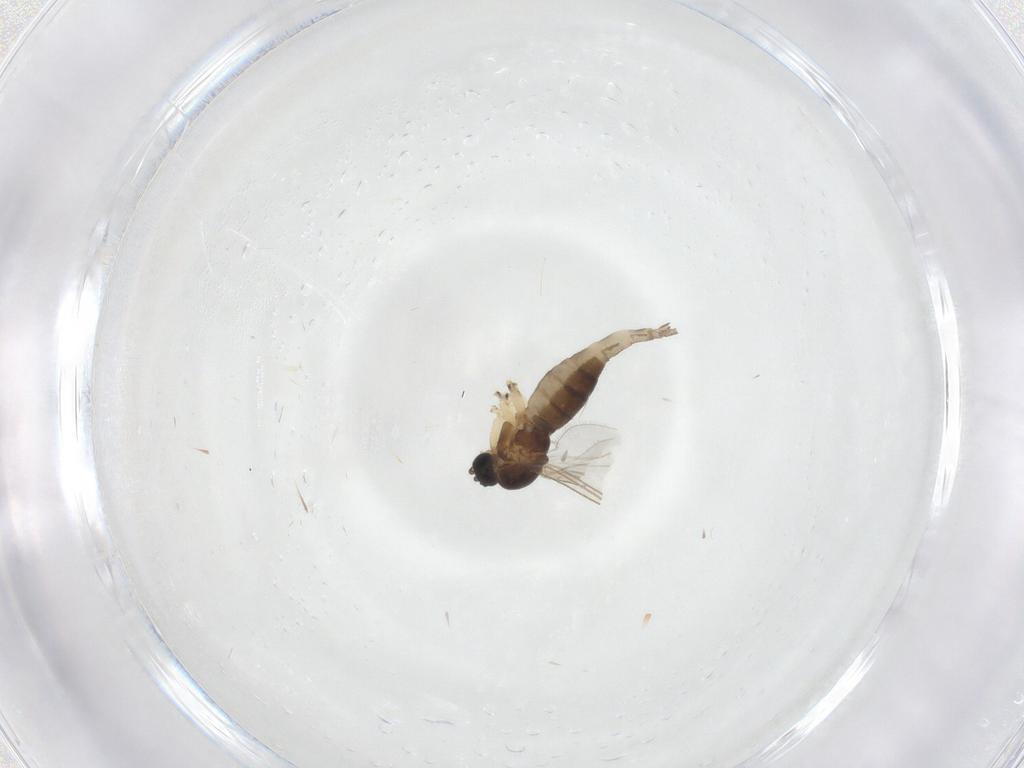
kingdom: Animalia
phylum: Arthropoda
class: Insecta
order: Diptera
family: Sciaridae
